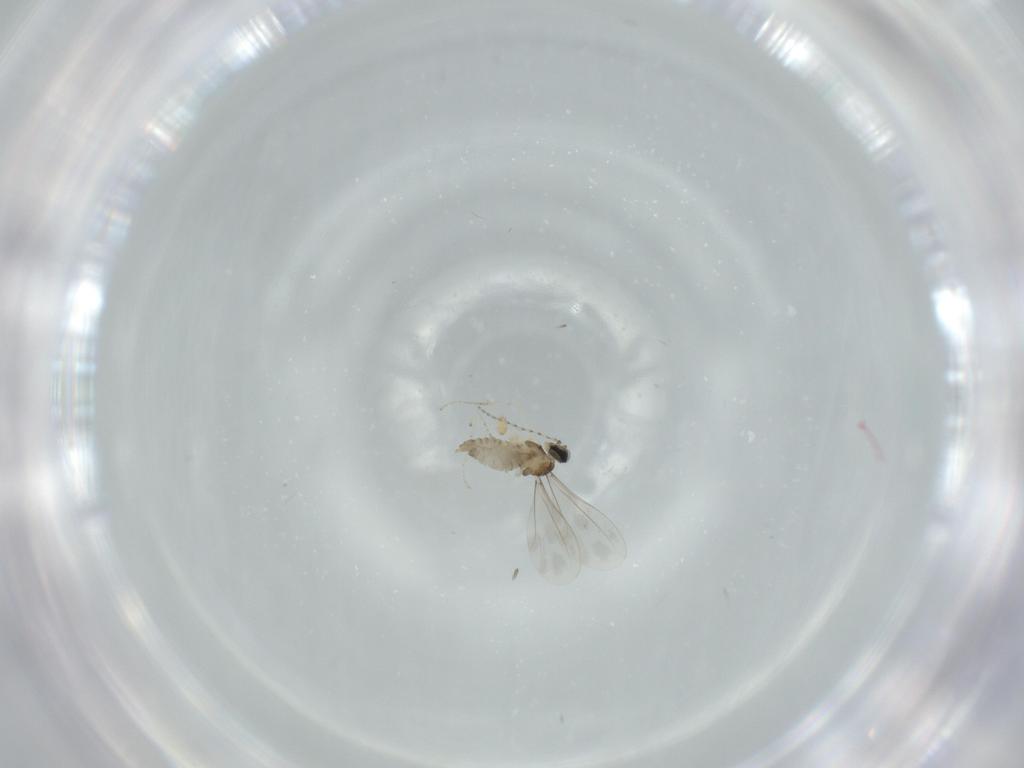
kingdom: Animalia
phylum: Arthropoda
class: Insecta
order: Diptera
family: Cecidomyiidae
